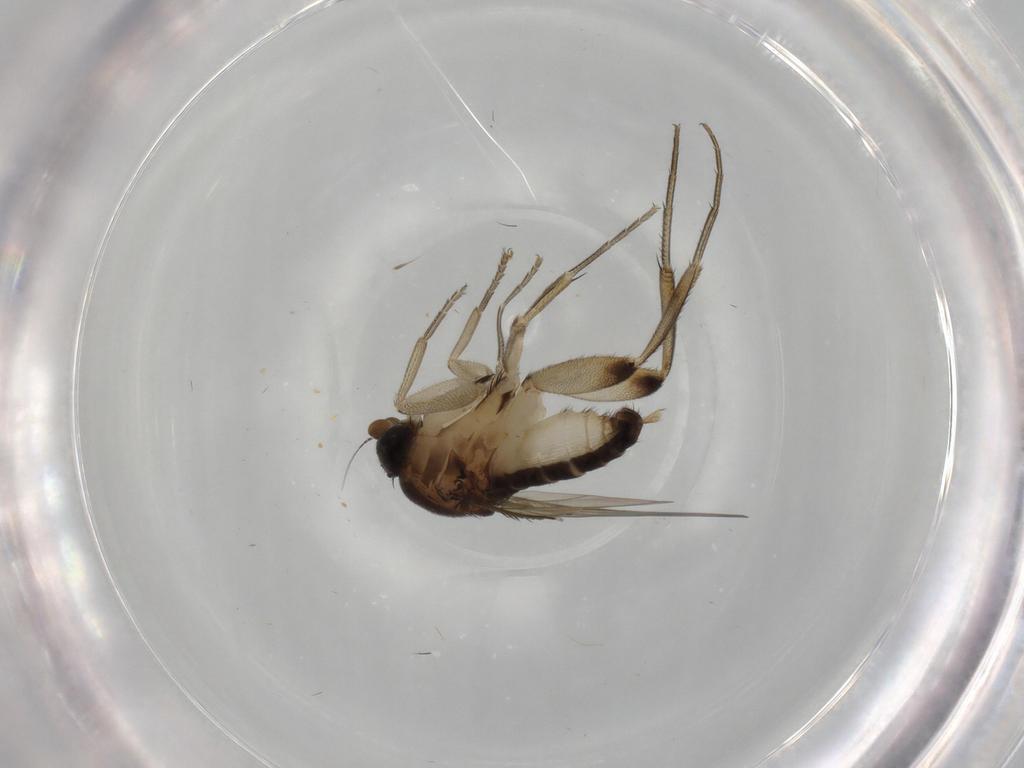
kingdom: Animalia
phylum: Arthropoda
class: Insecta
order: Diptera
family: Phoridae
